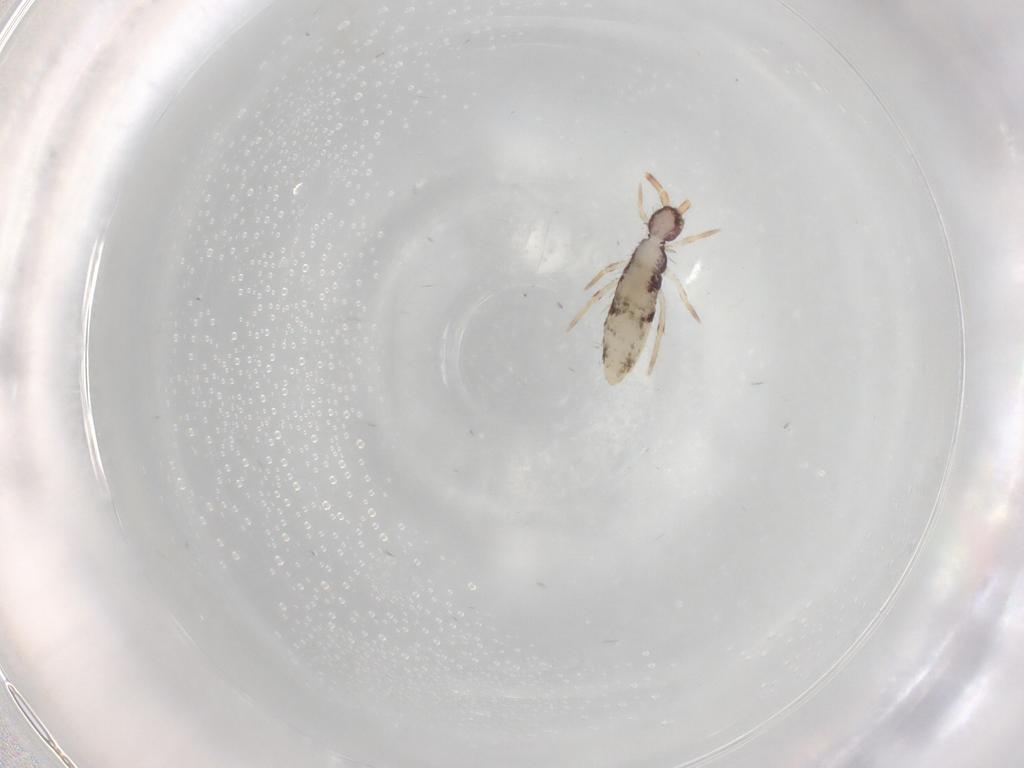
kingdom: Animalia
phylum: Arthropoda
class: Collembola
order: Entomobryomorpha
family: Entomobryidae
